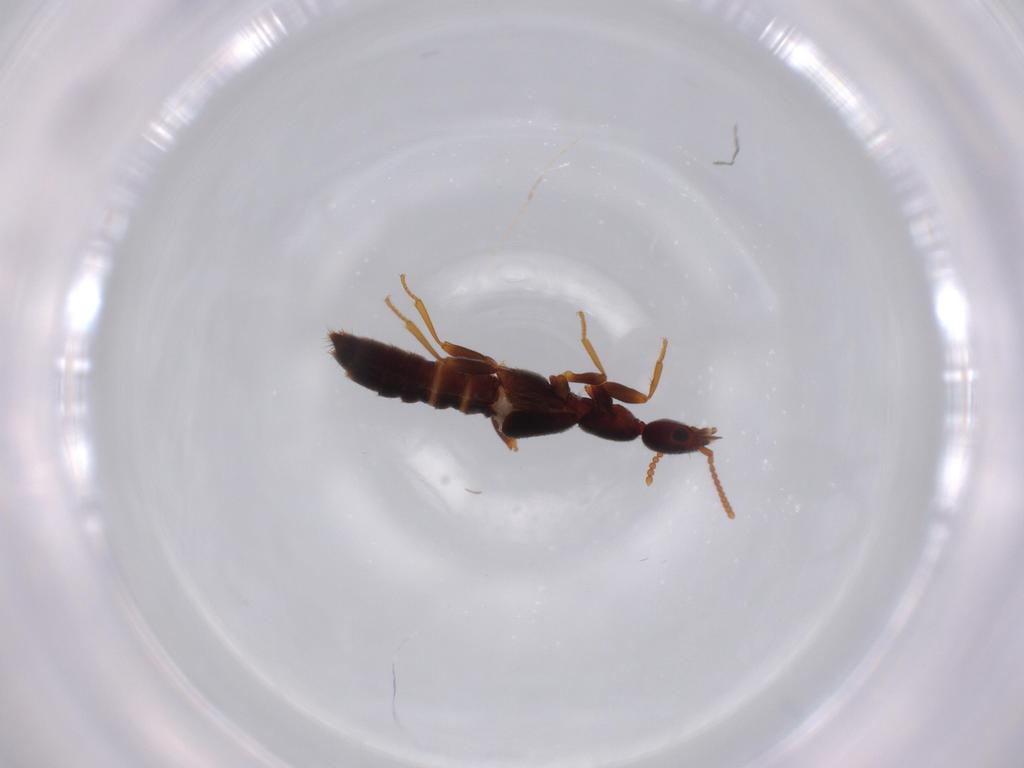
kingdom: Animalia
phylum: Arthropoda
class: Insecta
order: Coleoptera
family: Staphylinidae
